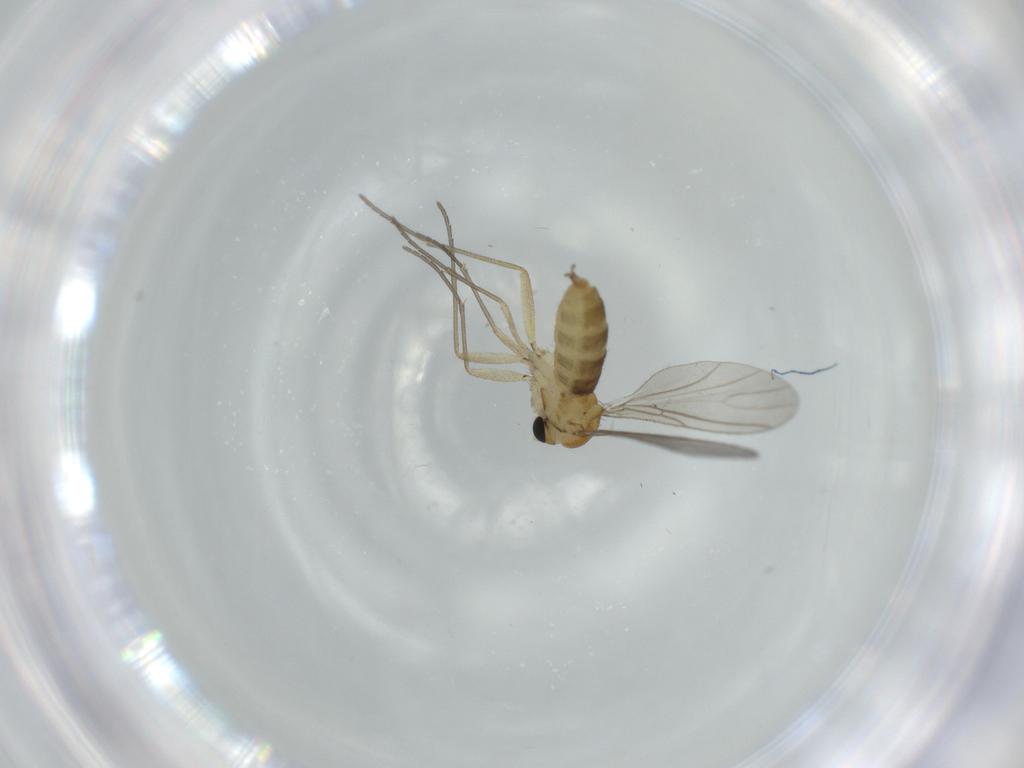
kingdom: Animalia
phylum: Arthropoda
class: Insecta
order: Diptera
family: Sciaridae
